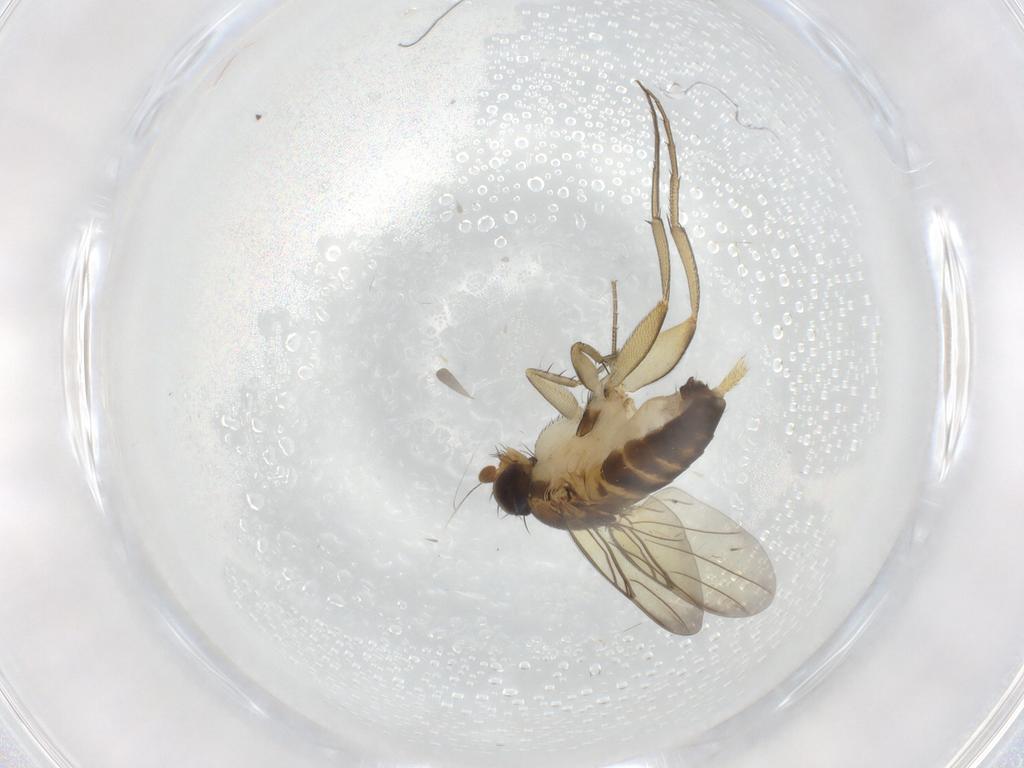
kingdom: Animalia
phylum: Arthropoda
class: Insecta
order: Diptera
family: Phoridae
